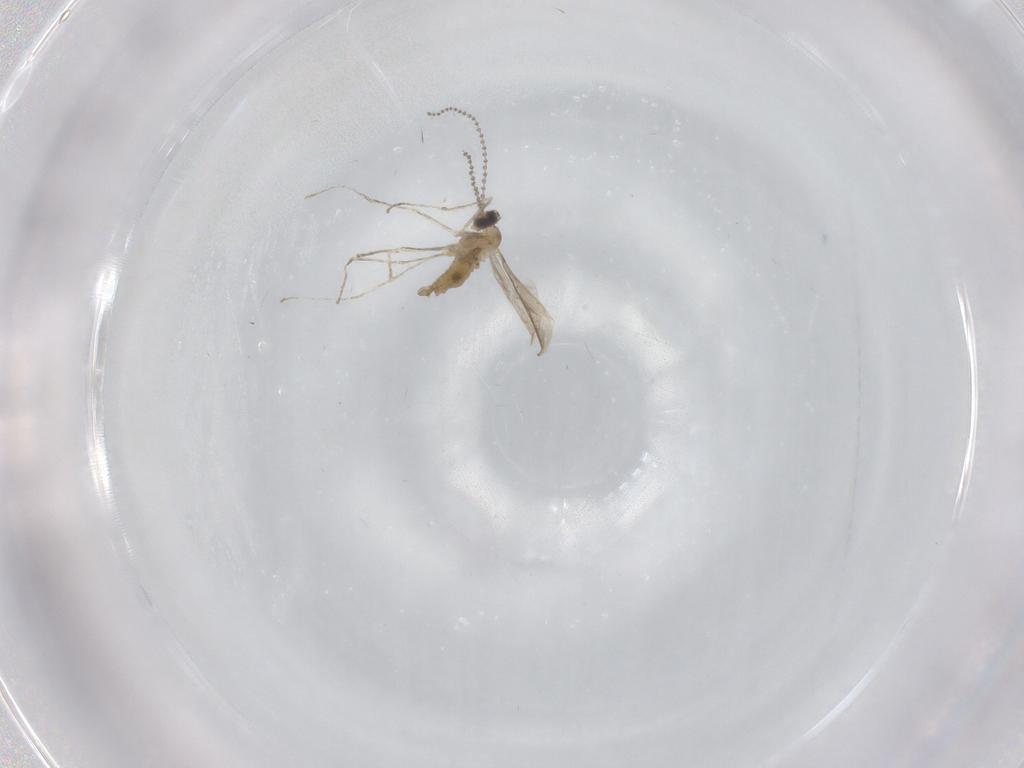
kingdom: Animalia
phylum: Arthropoda
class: Insecta
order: Diptera
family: Cecidomyiidae
